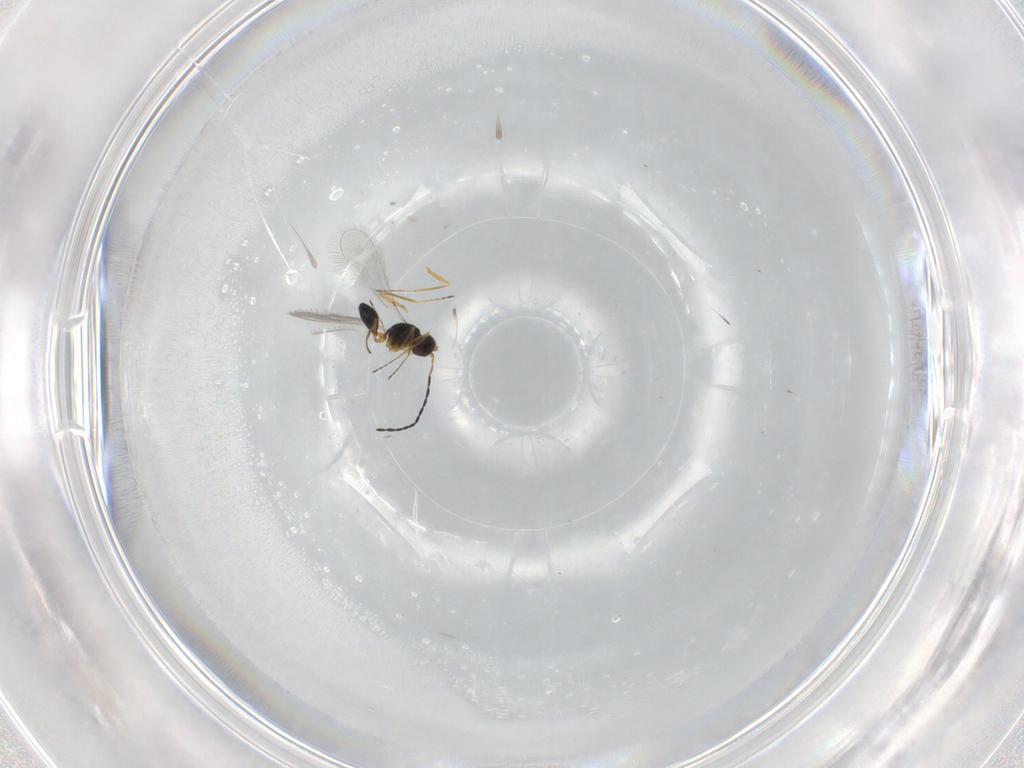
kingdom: Animalia
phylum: Arthropoda
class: Insecta
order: Hymenoptera
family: Mymaridae
